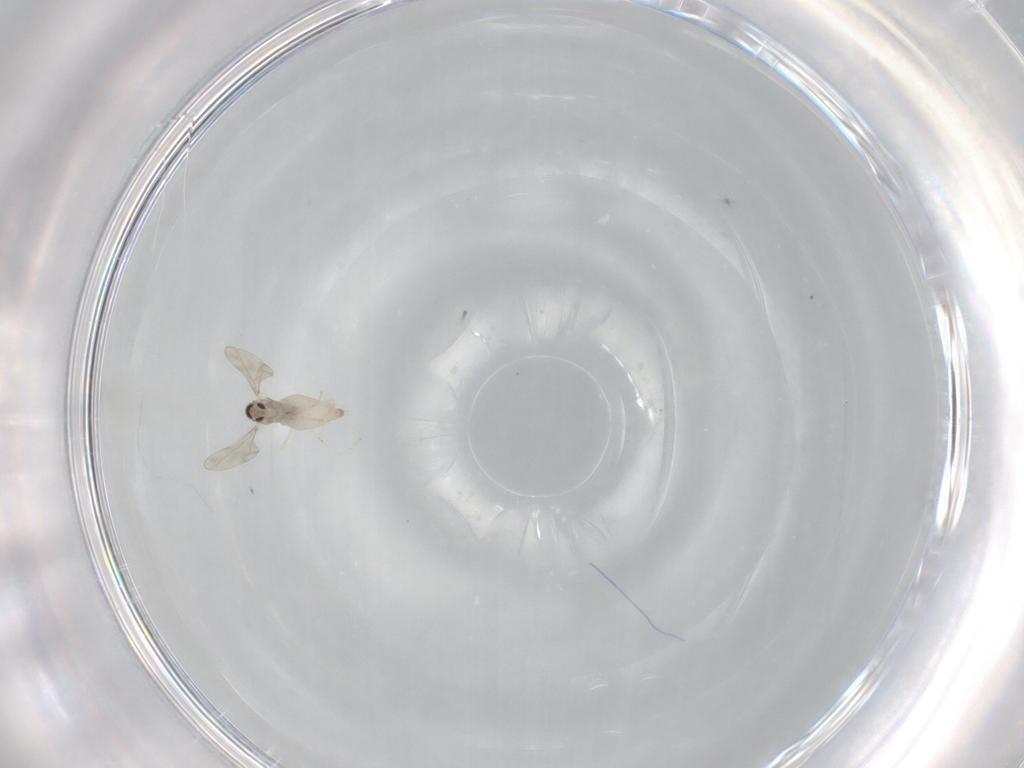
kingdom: Animalia
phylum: Arthropoda
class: Insecta
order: Diptera
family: Cecidomyiidae
